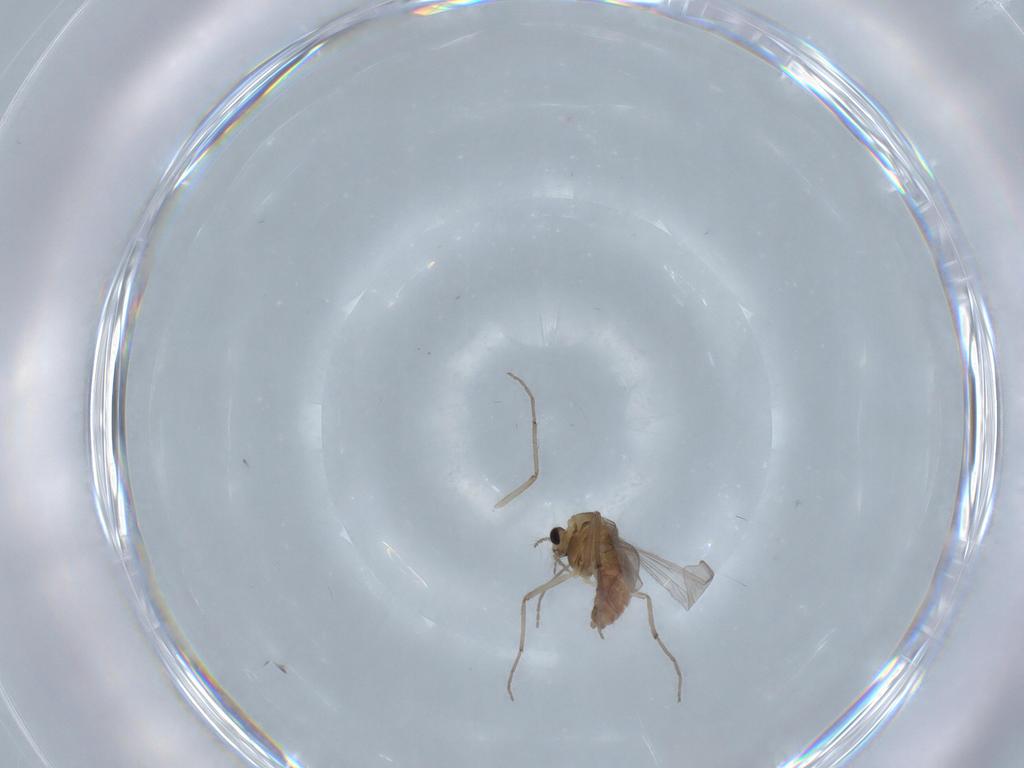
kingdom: Animalia
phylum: Arthropoda
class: Insecta
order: Diptera
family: Chironomidae
